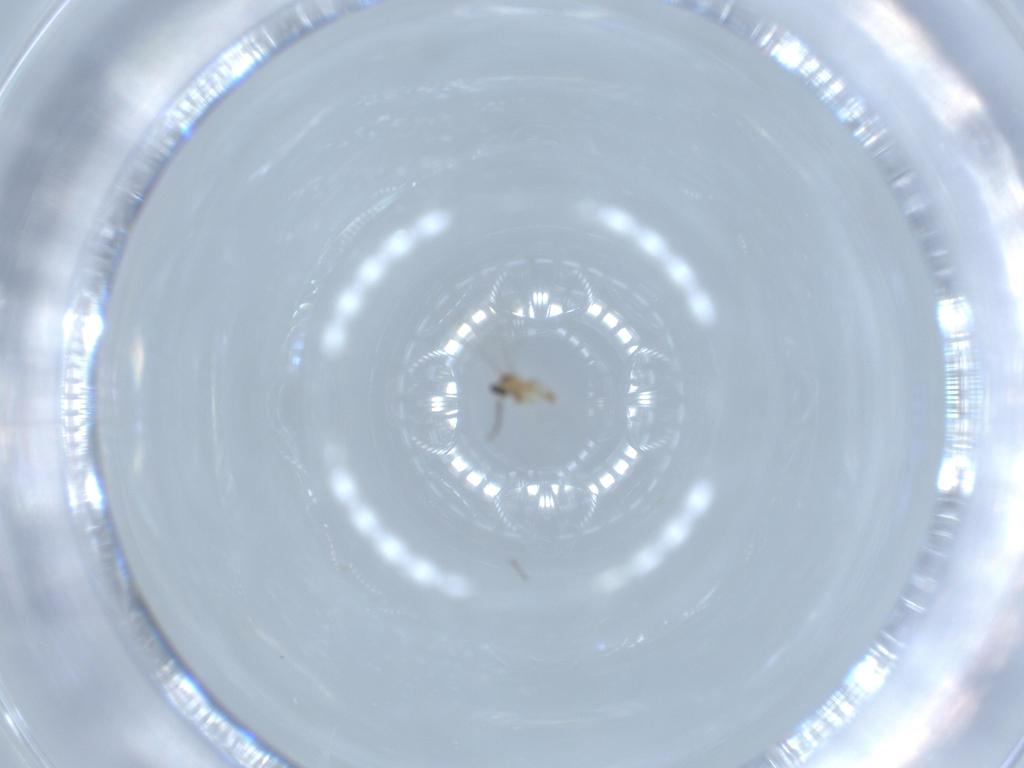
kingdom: Animalia
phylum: Arthropoda
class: Insecta
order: Diptera
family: Cecidomyiidae
